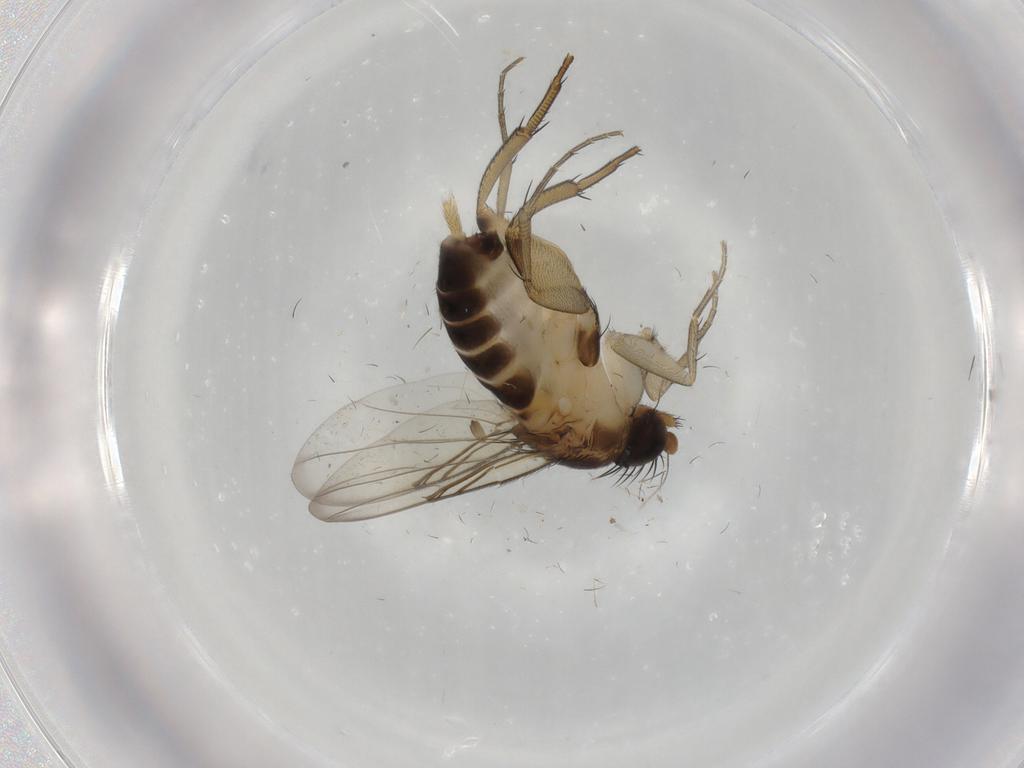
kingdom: Animalia
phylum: Arthropoda
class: Insecta
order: Diptera
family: Phoridae
